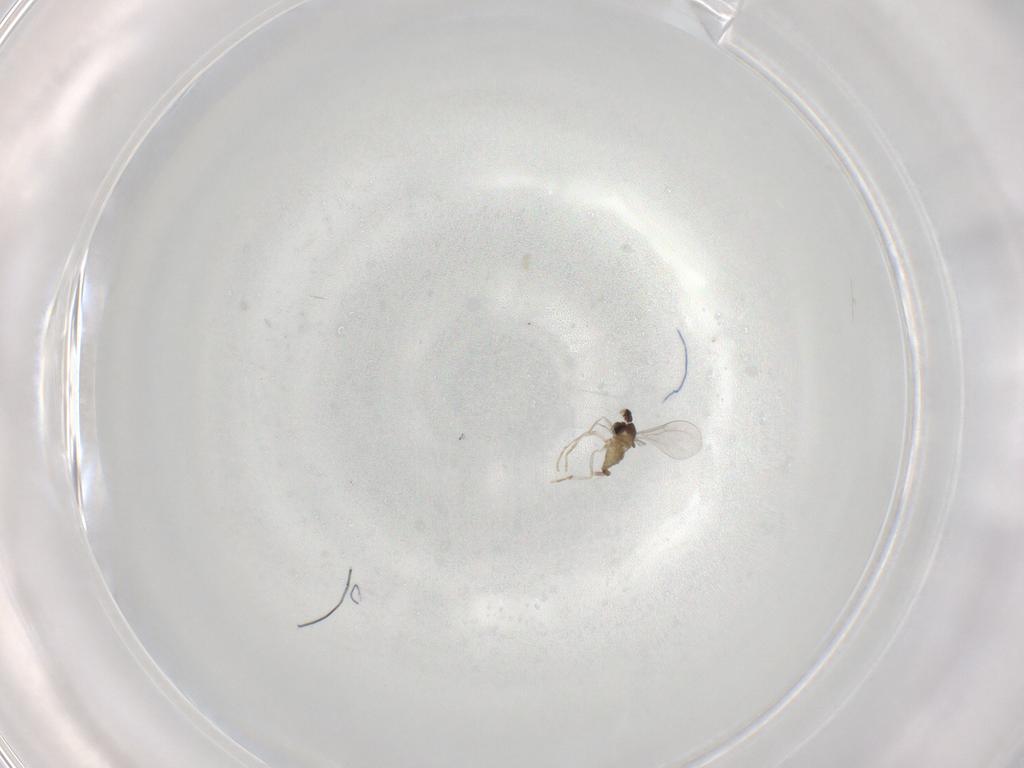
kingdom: Animalia
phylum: Arthropoda
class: Insecta
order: Diptera
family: Cecidomyiidae
